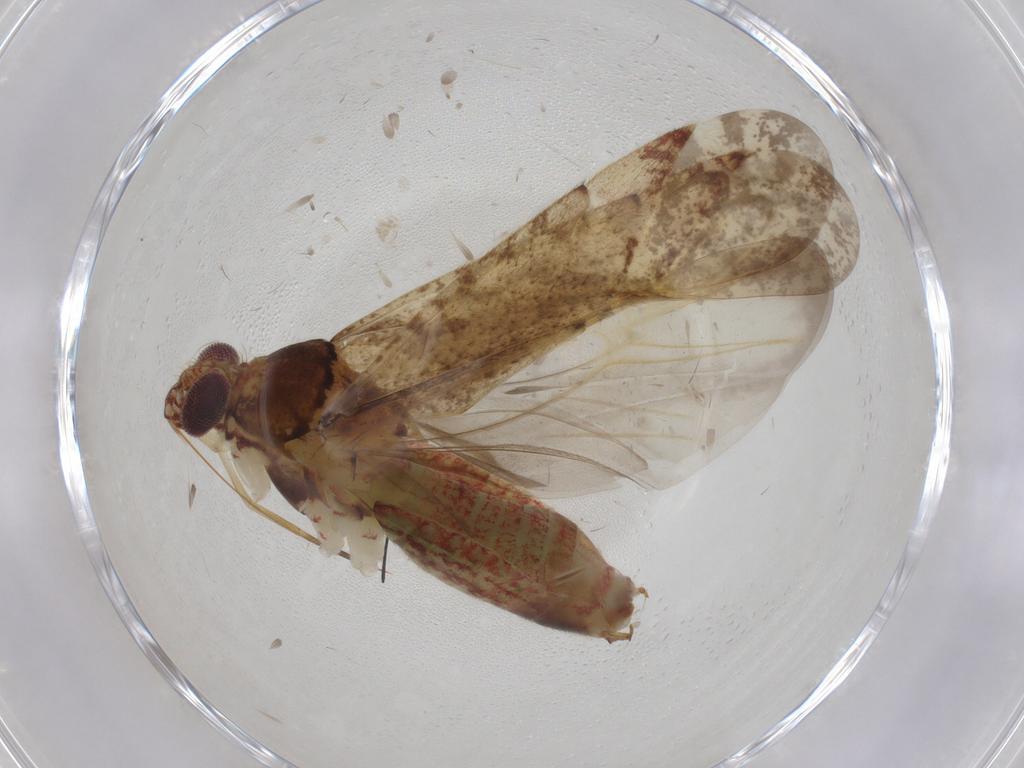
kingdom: Animalia
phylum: Arthropoda
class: Insecta
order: Hemiptera
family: Miridae
